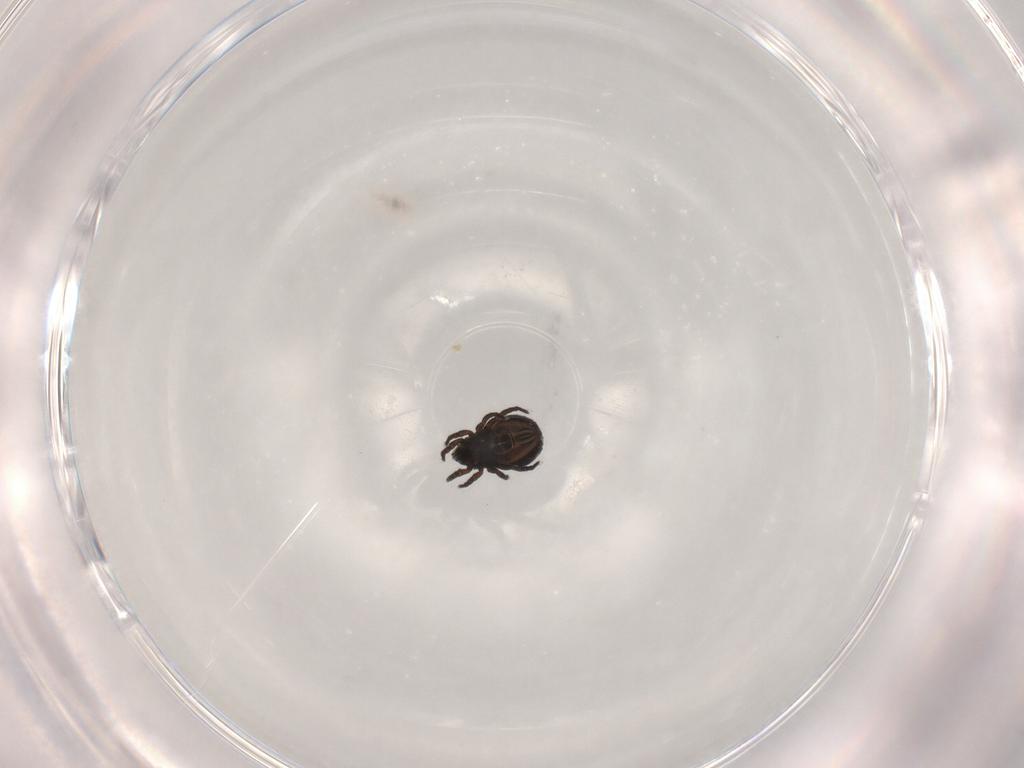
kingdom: Animalia
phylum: Arthropoda
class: Arachnida
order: Sarcoptiformes
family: Crotoniidae
